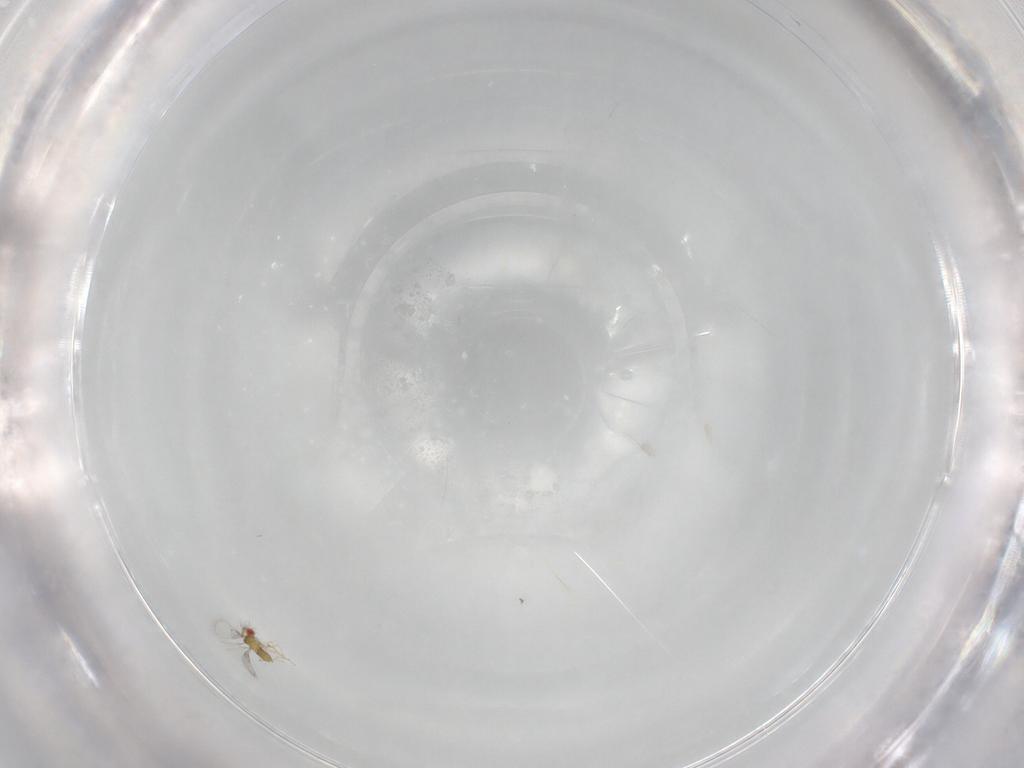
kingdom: Animalia
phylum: Arthropoda
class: Insecta
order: Hymenoptera
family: Trichogrammatidae
